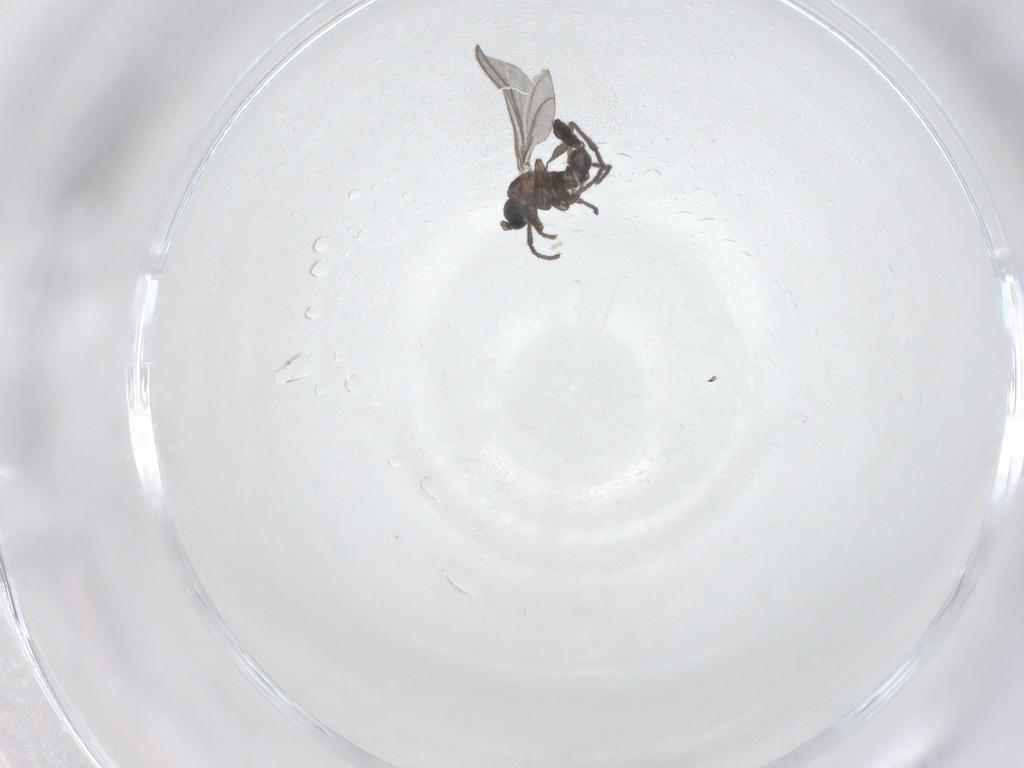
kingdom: Animalia
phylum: Arthropoda
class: Insecta
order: Diptera
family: Sciaridae
